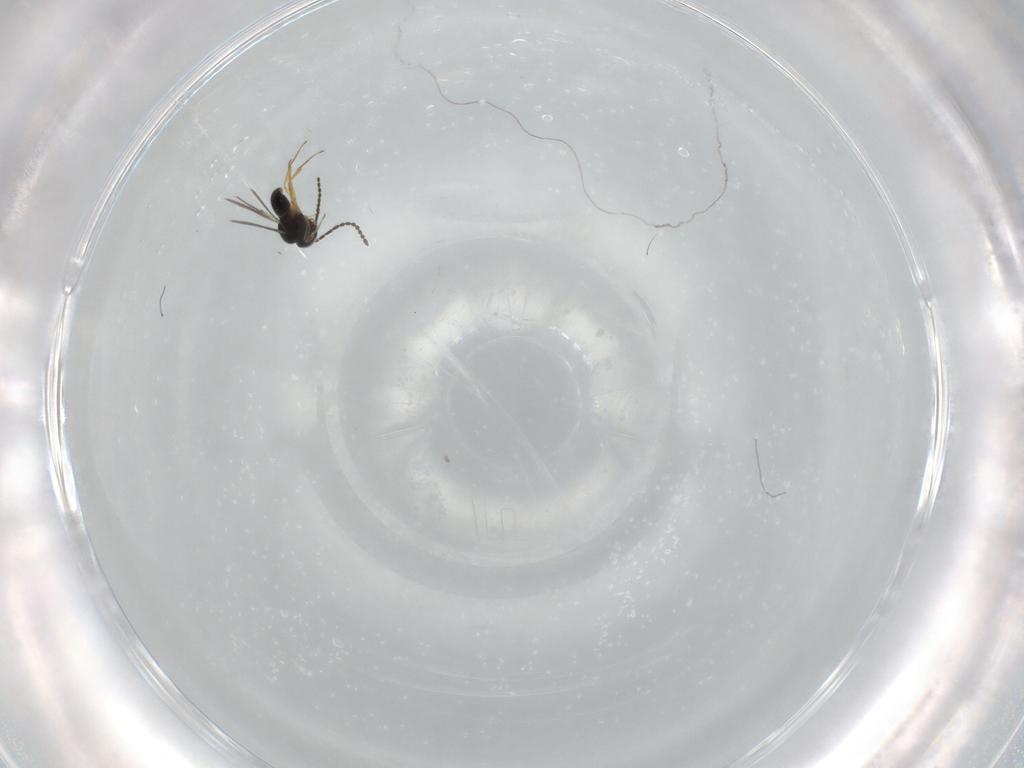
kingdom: Animalia
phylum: Arthropoda
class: Insecta
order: Hymenoptera
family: Scelionidae
